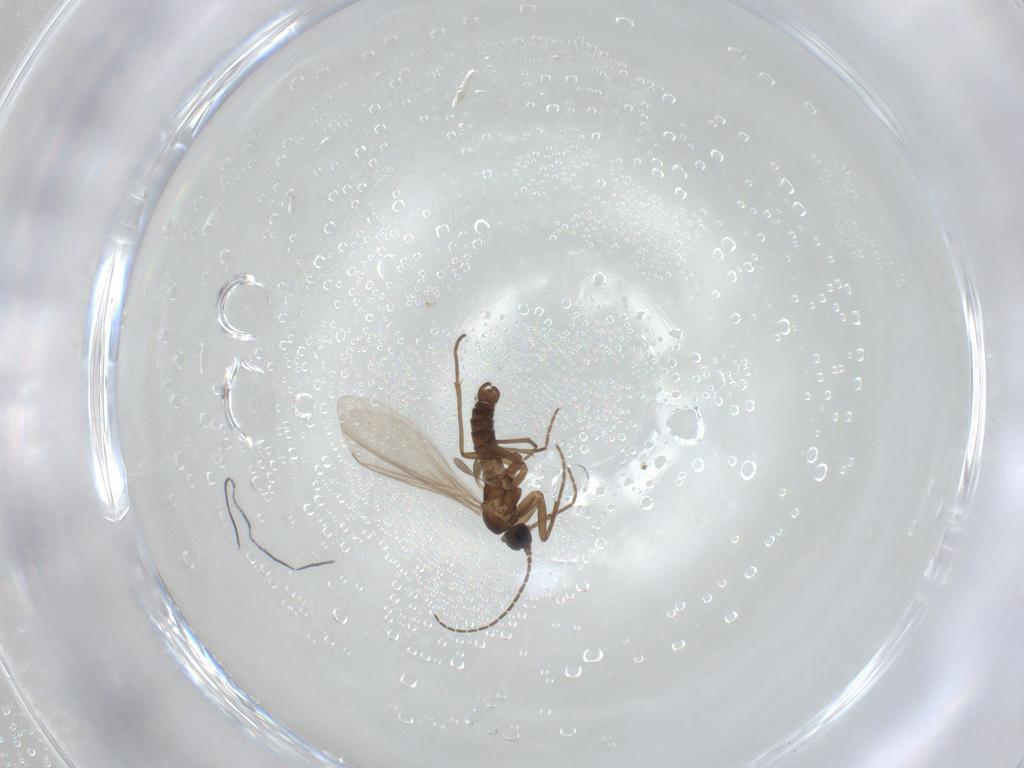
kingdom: Animalia
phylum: Arthropoda
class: Insecta
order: Diptera
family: Sciaridae
